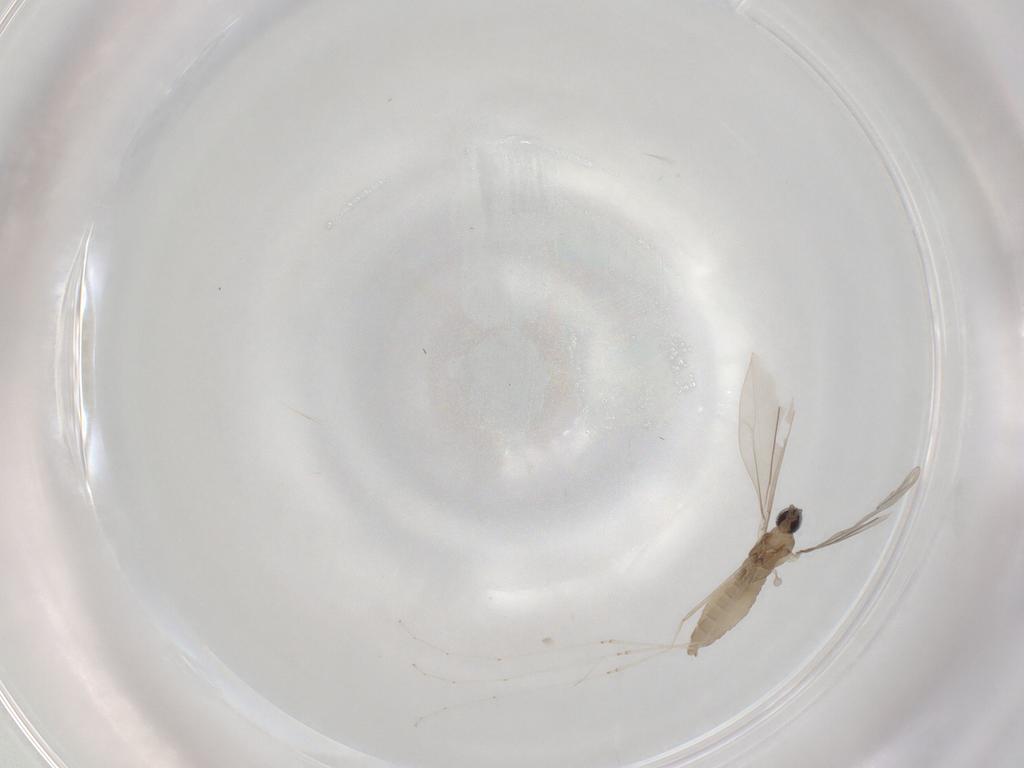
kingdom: Animalia
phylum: Arthropoda
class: Insecta
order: Diptera
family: Cecidomyiidae
